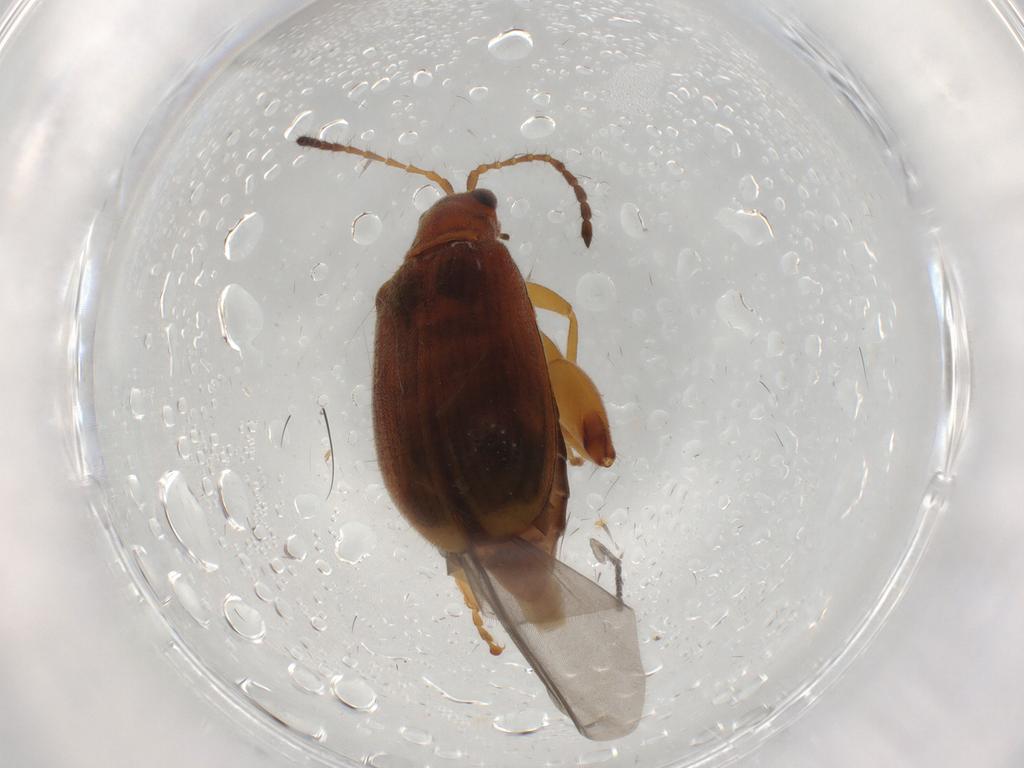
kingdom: Animalia
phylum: Arthropoda
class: Insecta
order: Coleoptera
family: Chrysomelidae
